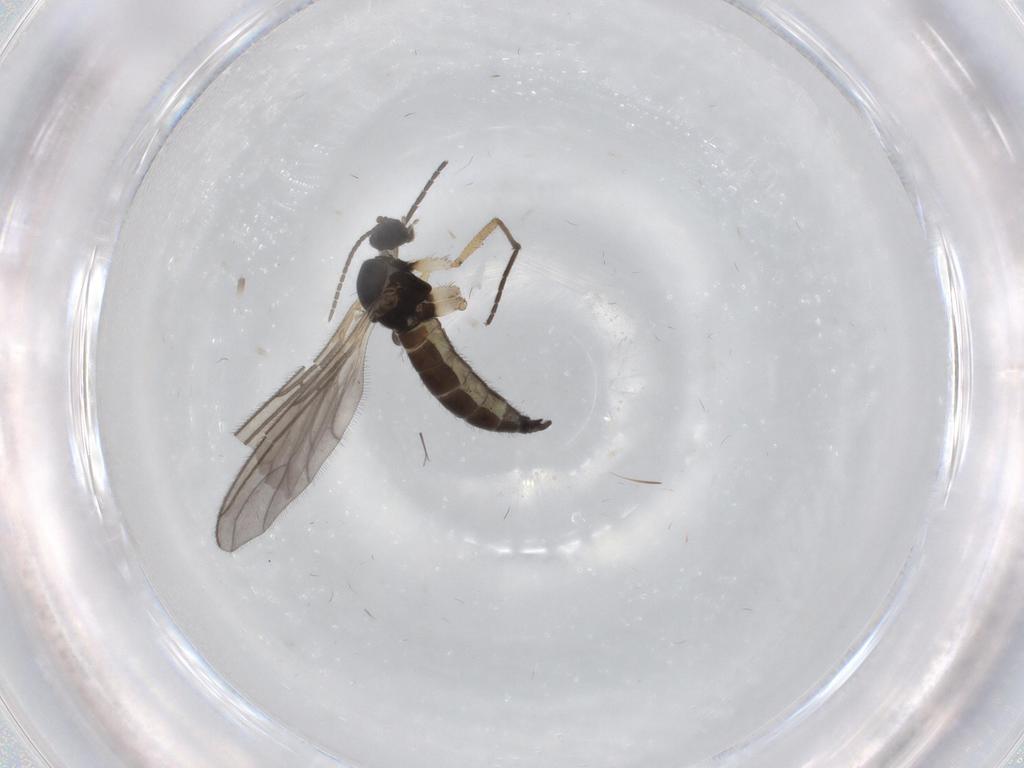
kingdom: Animalia
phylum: Arthropoda
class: Insecta
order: Diptera
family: Sciaridae
